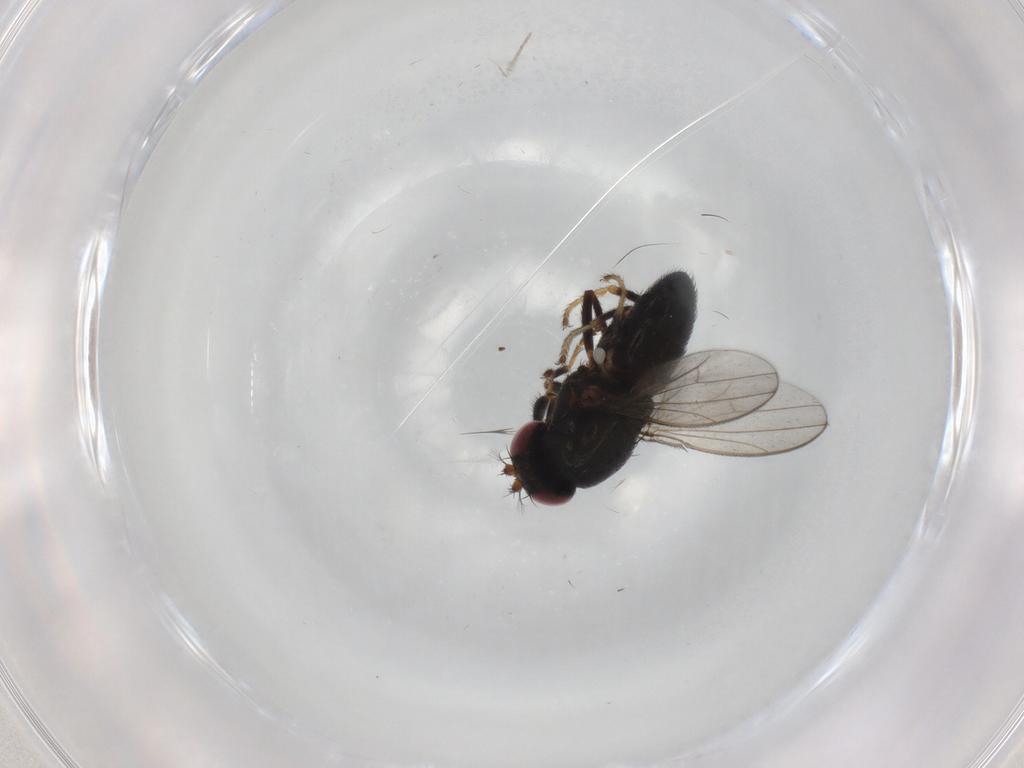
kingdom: Animalia
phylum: Arthropoda
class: Insecta
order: Diptera
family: Ephydridae
